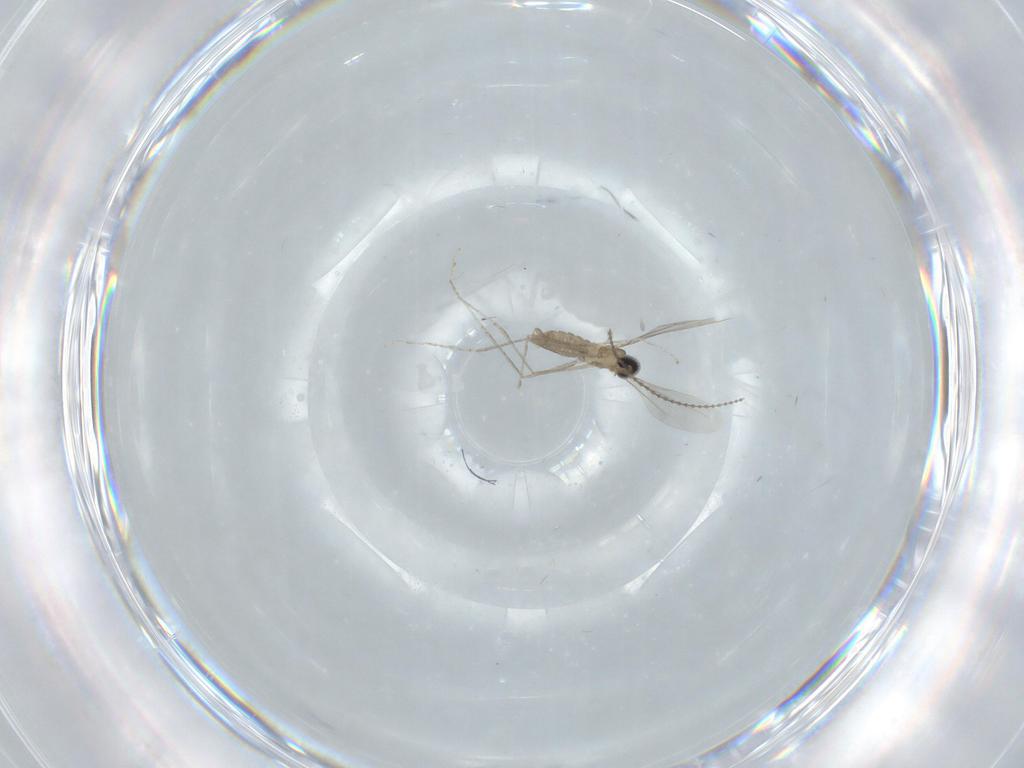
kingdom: Animalia
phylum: Arthropoda
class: Insecta
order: Diptera
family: Cecidomyiidae
